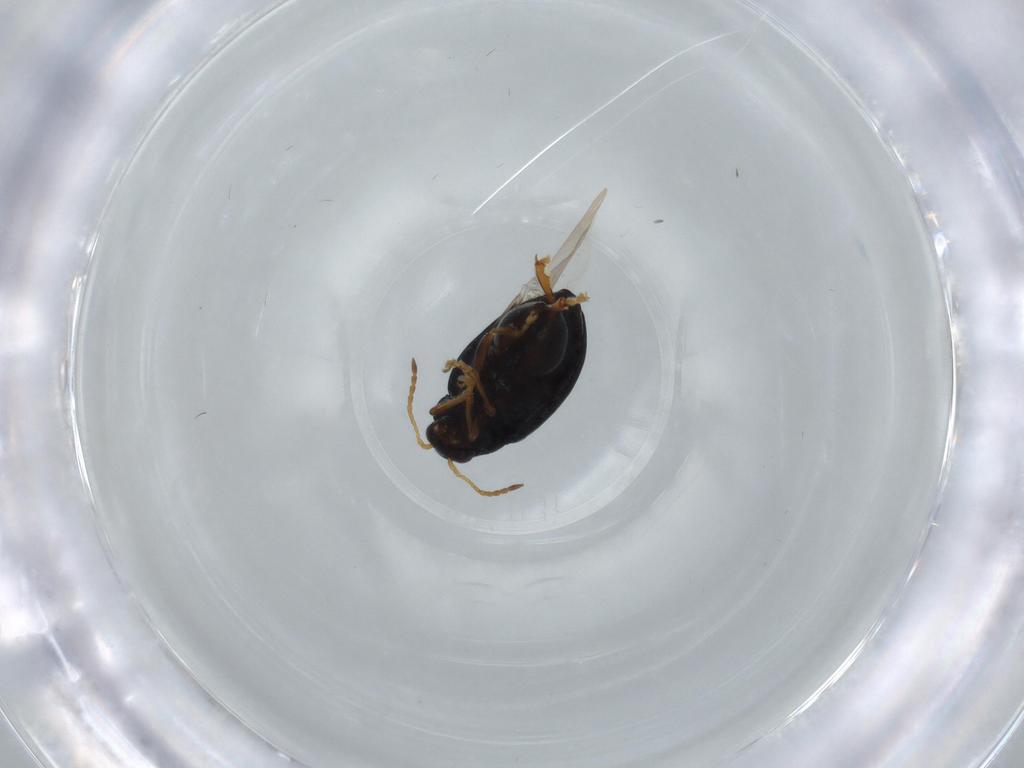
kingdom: Animalia
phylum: Arthropoda
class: Insecta
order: Coleoptera
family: Chrysomelidae
